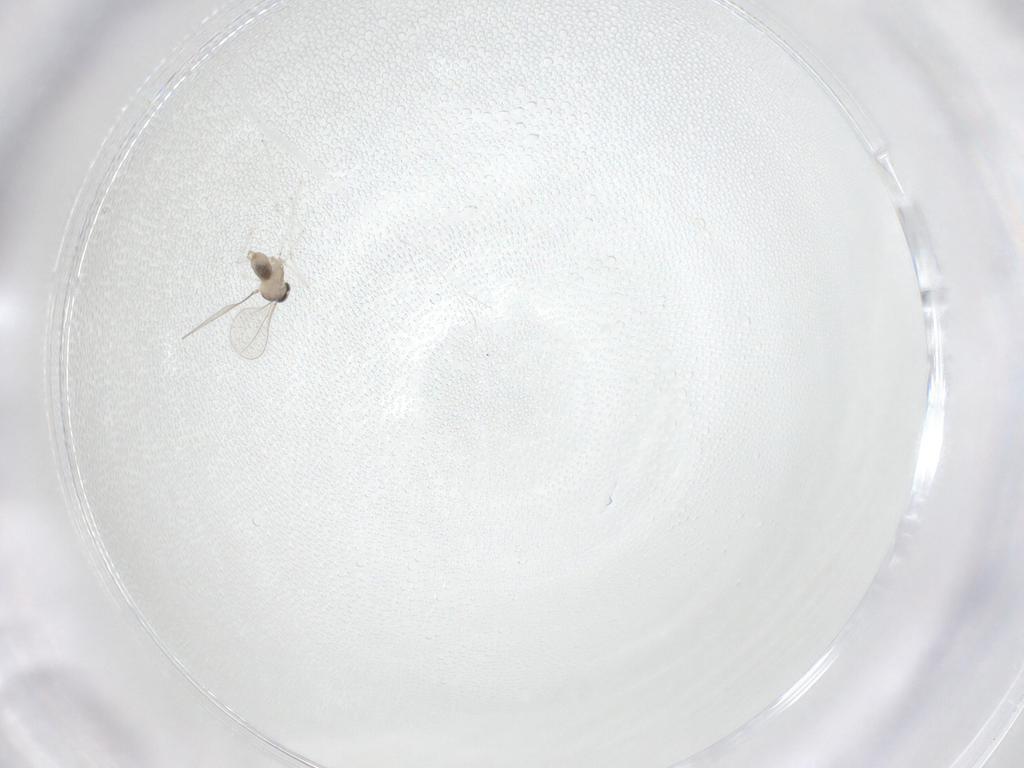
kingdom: Animalia
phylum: Arthropoda
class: Insecta
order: Diptera
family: Cecidomyiidae
